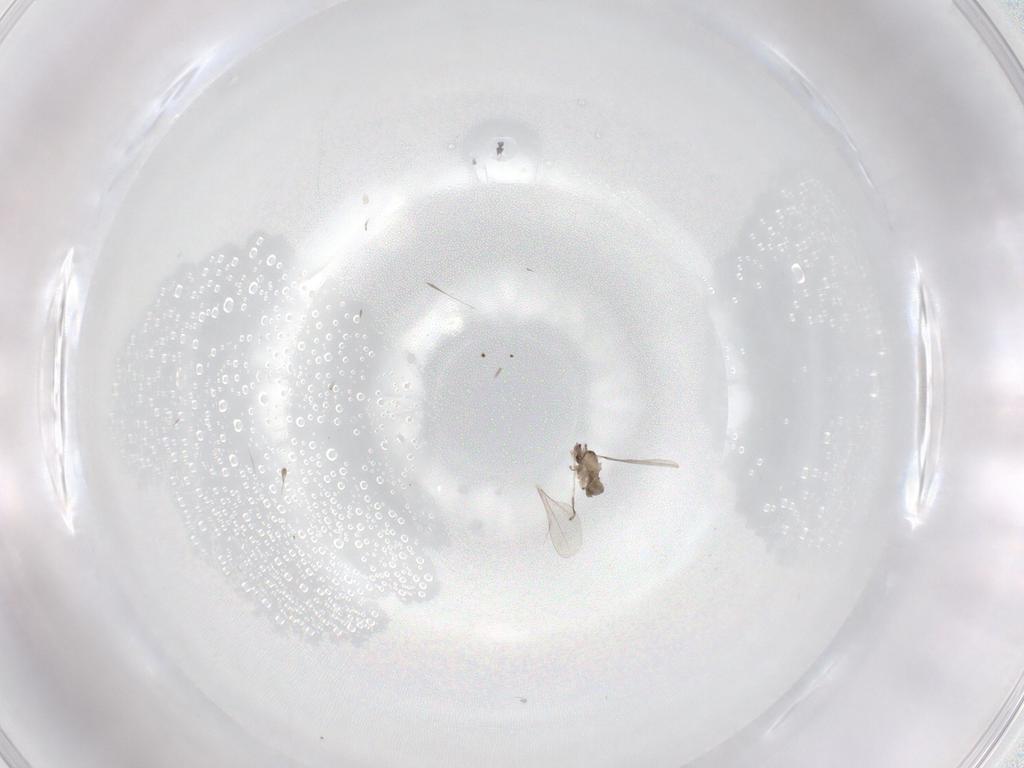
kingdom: Animalia
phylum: Arthropoda
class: Insecta
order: Diptera
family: Cecidomyiidae
